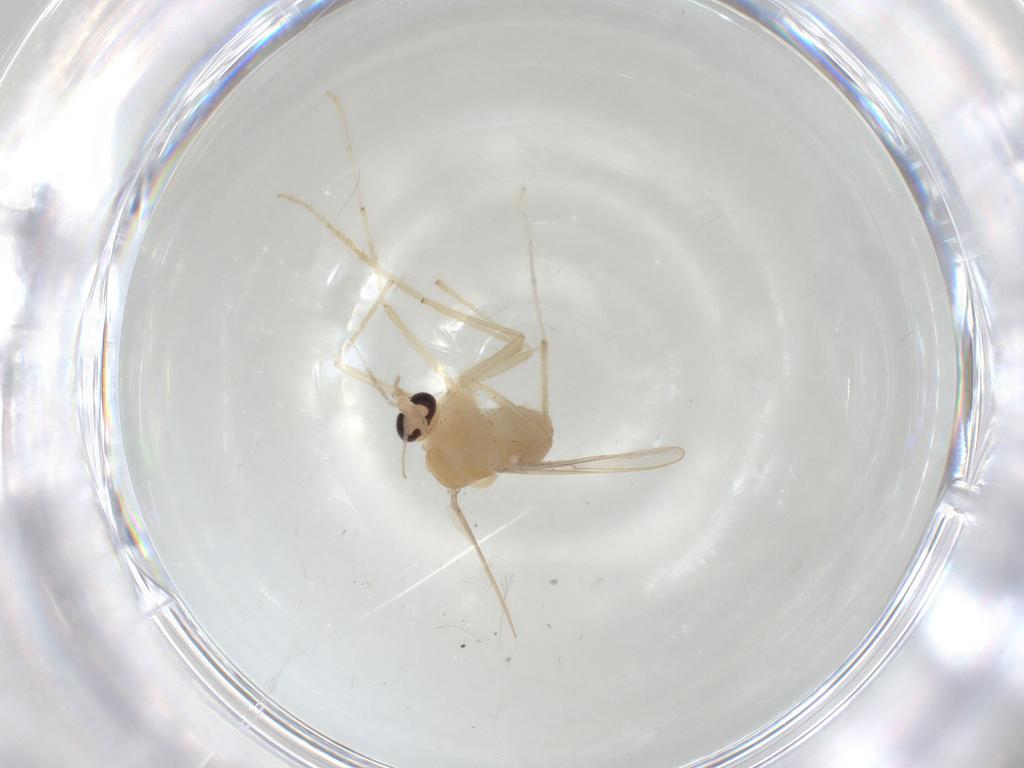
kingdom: Animalia
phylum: Arthropoda
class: Insecta
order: Diptera
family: Chironomidae
